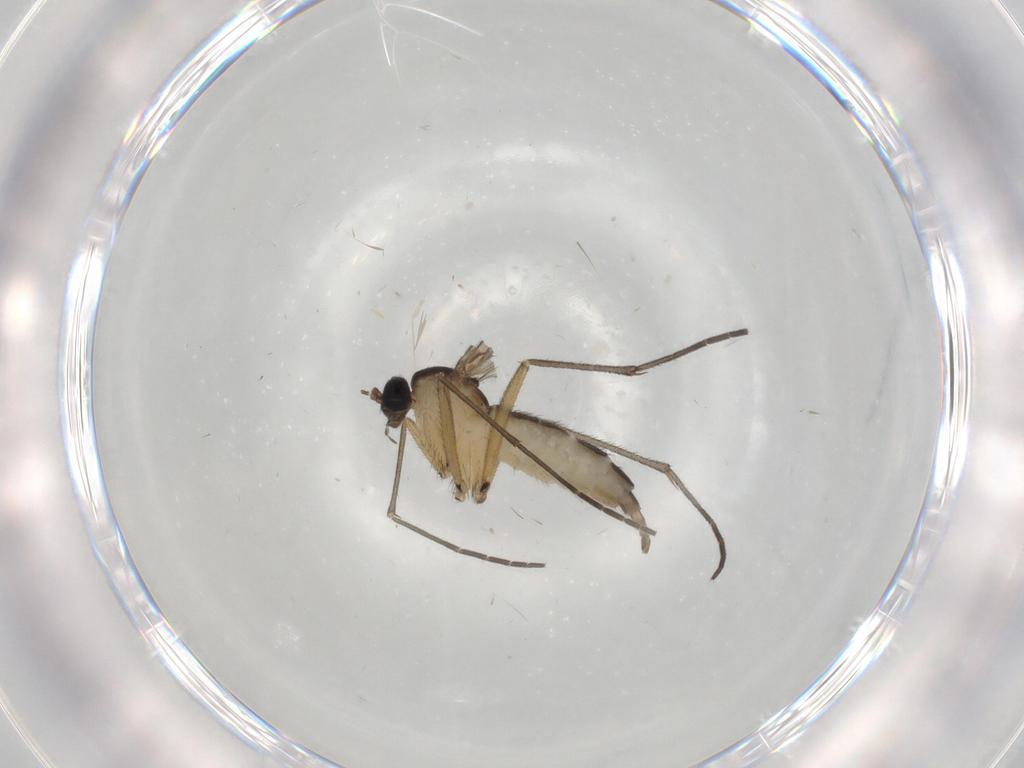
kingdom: Animalia
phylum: Arthropoda
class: Insecta
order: Diptera
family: Sciaridae
